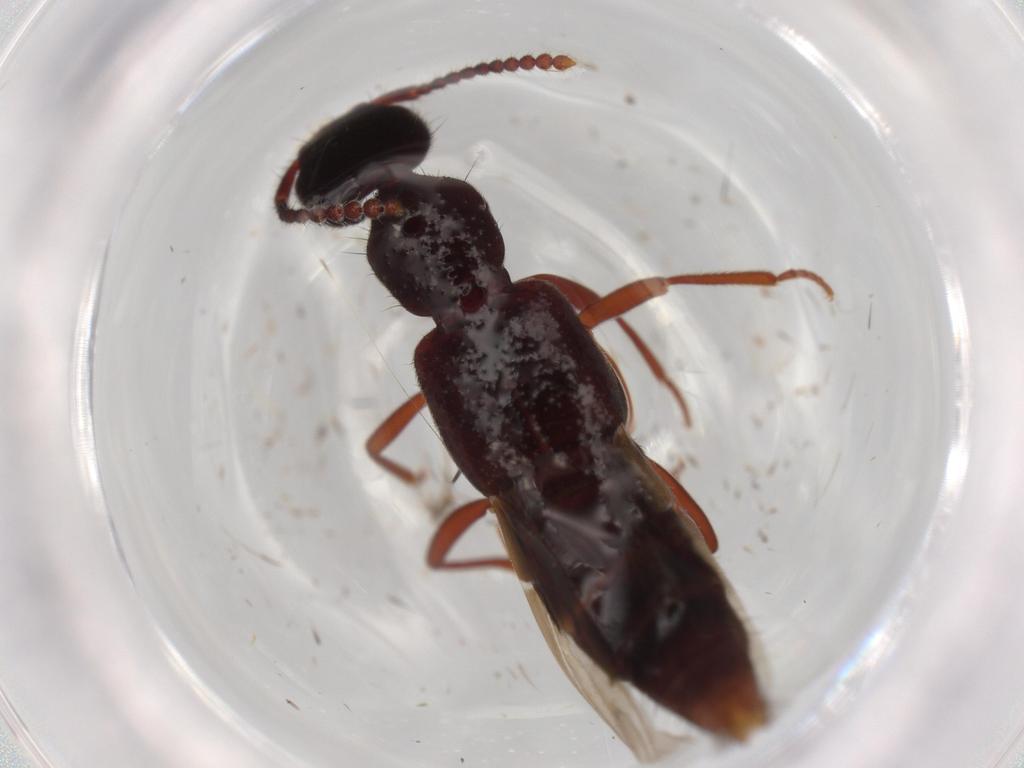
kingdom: Animalia
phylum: Arthropoda
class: Insecta
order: Coleoptera
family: Staphylinidae
